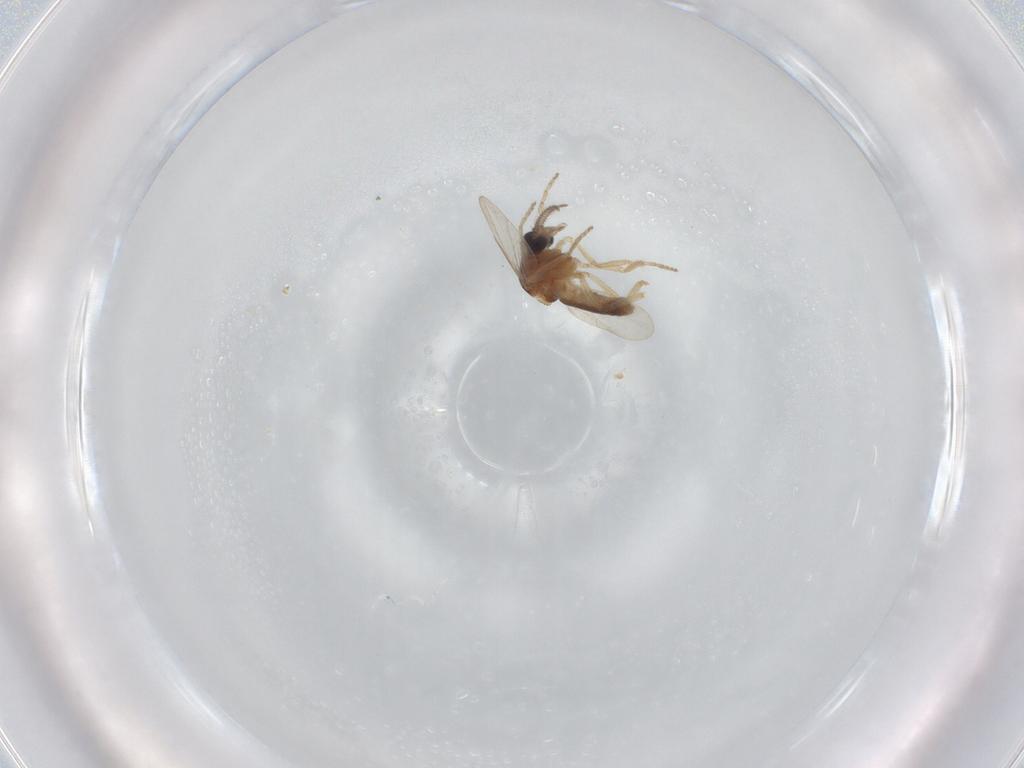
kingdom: Animalia
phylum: Arthropoda
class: Insecta
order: Diptera
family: Ceratopogonidae
